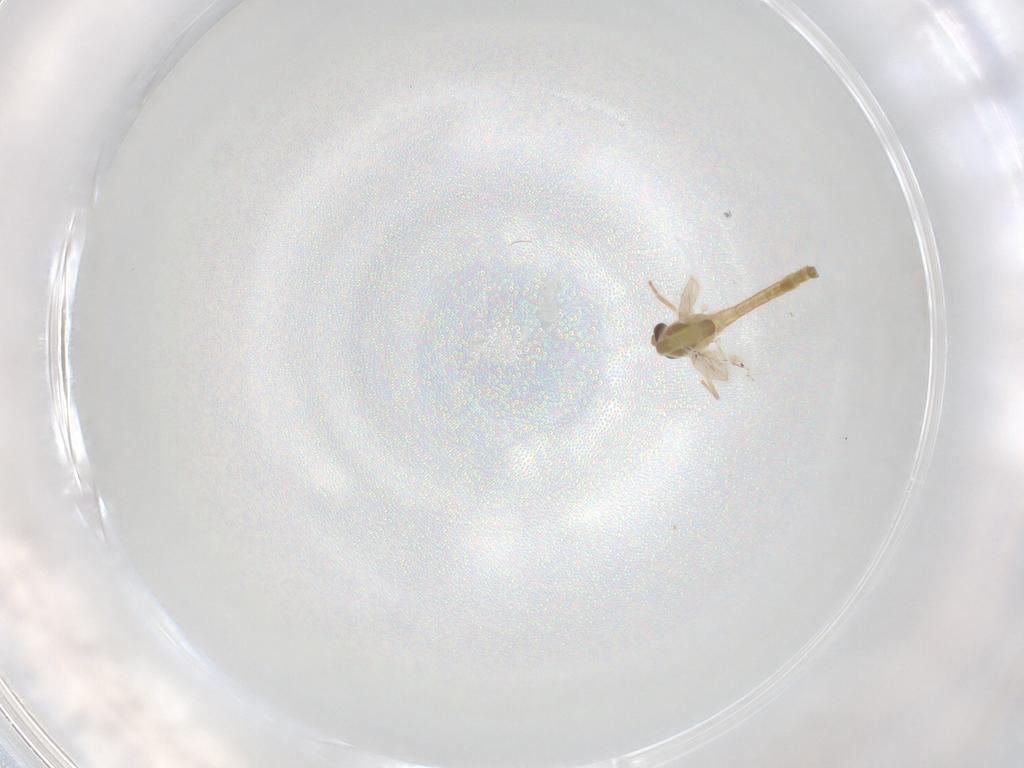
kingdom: Animalia
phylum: Arthropoda
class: Insecta
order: Diptera
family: Chironomidae
